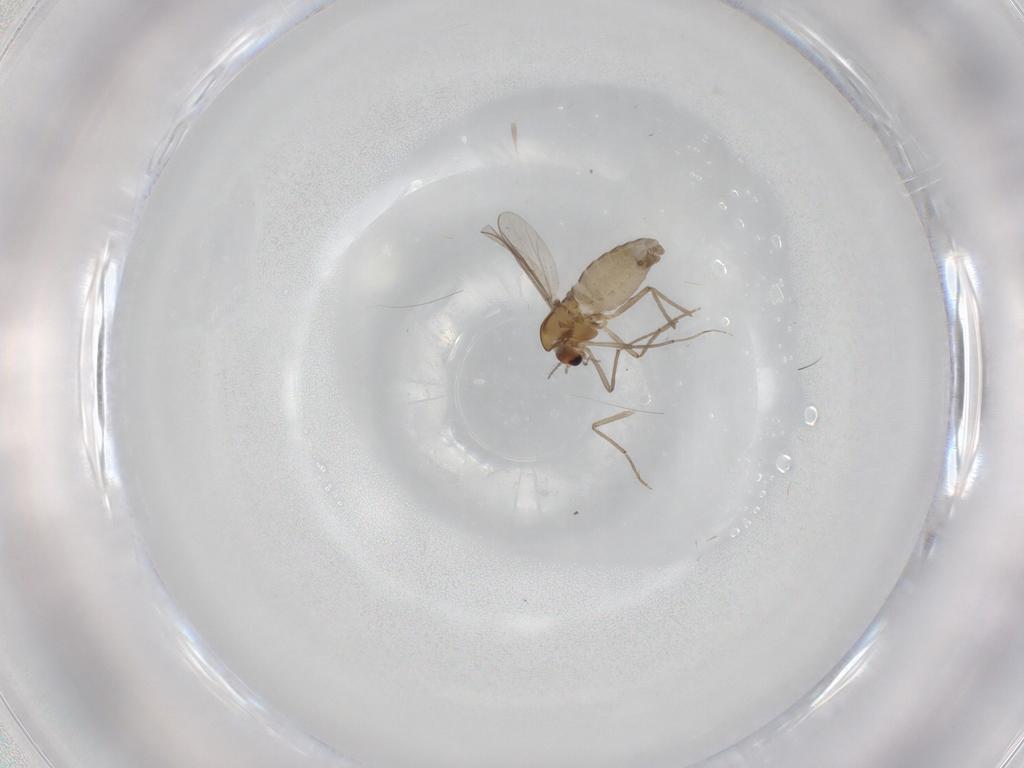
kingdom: Animalia
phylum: Arthropoda
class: Insecta
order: Diptera
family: Chironomidae
